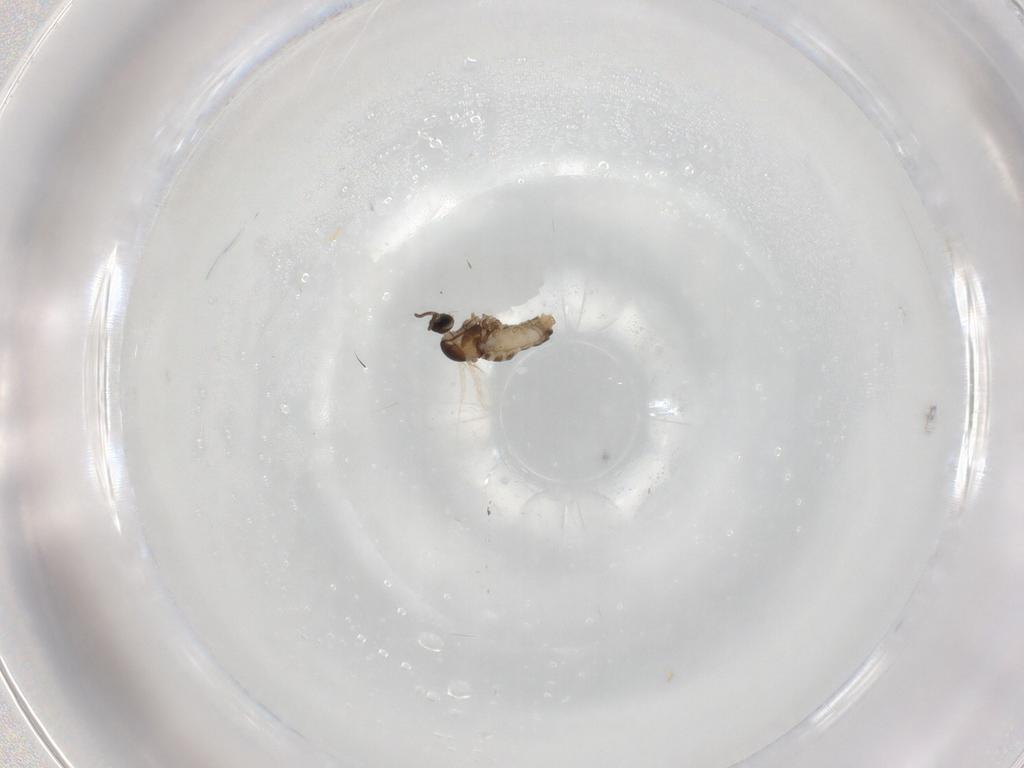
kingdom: Animalia
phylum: Arthropoda
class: Insecta
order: Diptera
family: Cecidomyiidae
